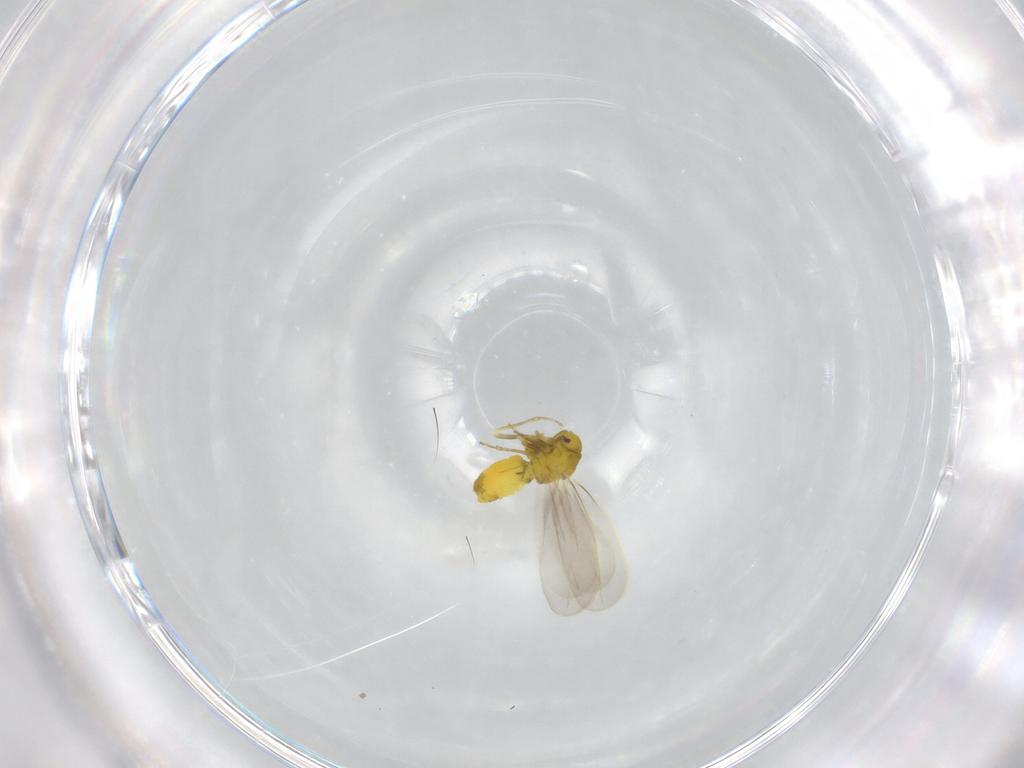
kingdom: Animalia
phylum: Arthropoda
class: Insecta
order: Hemiptera
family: Aleyrodidae
